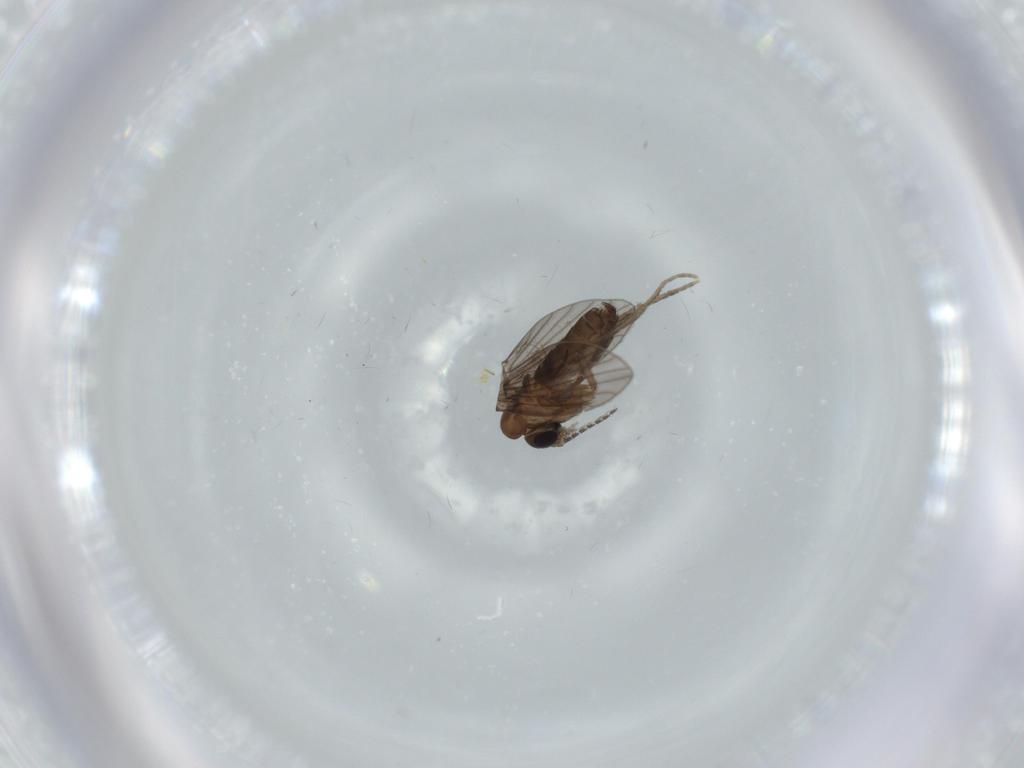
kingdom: Animalia
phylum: Arthropoda
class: Insecta
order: Diptera
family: Psychodidae
